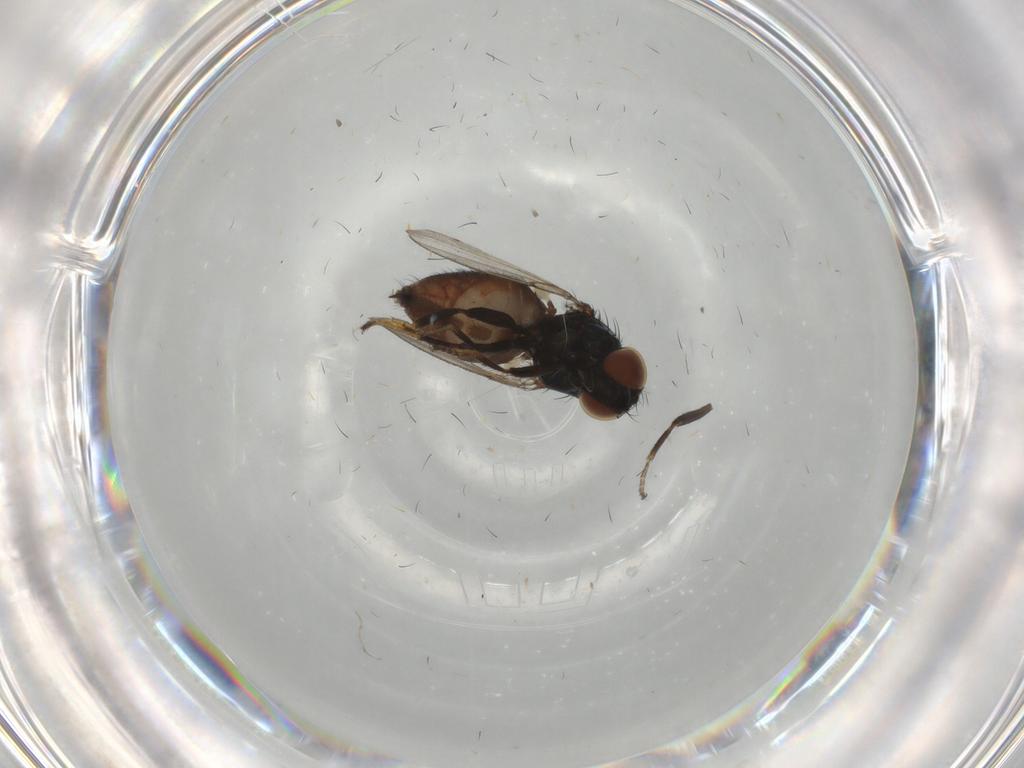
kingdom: Animalia
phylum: Arthropoda
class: Insecta
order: Diptera
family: Milichiidae
